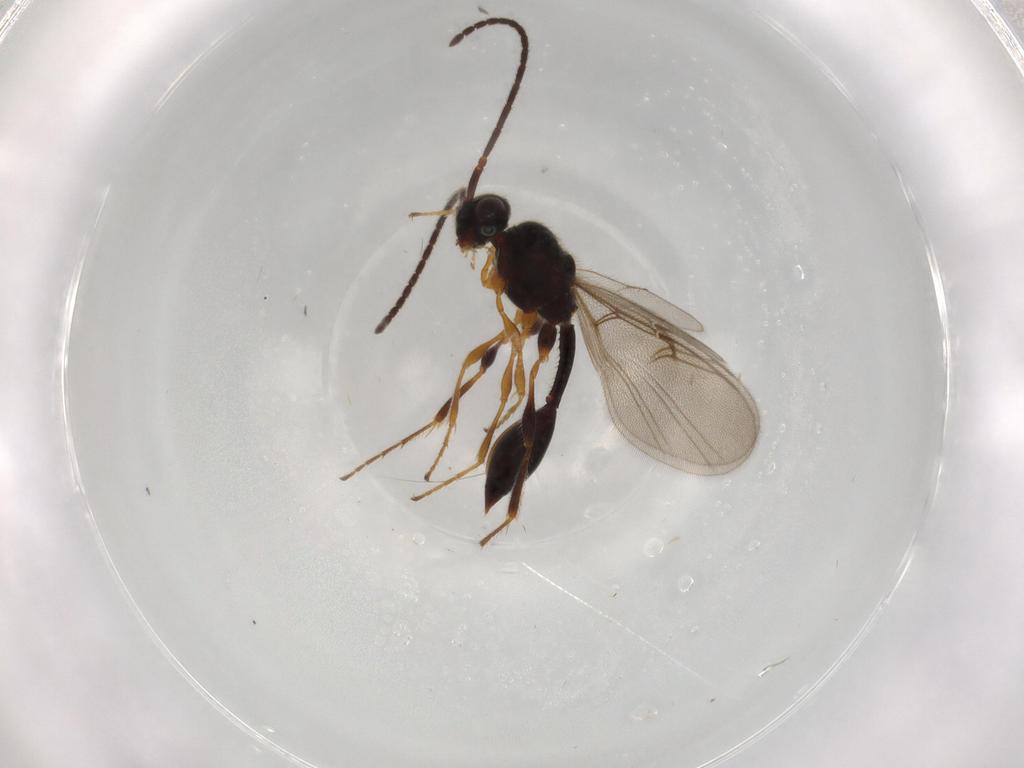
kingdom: Animalia
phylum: Arthropoda
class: Insecta
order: Hymenoptera
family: Diapriidae
